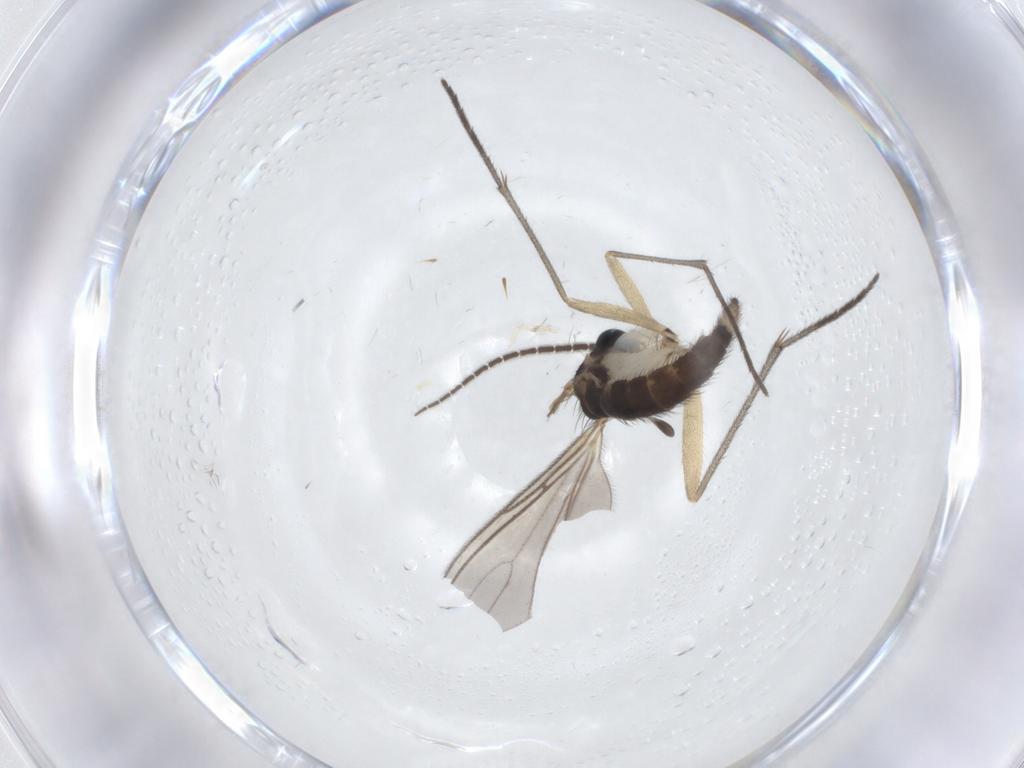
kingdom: Animalia
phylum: Arthropoda
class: Insecta
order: Diptera
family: Sciaridae
